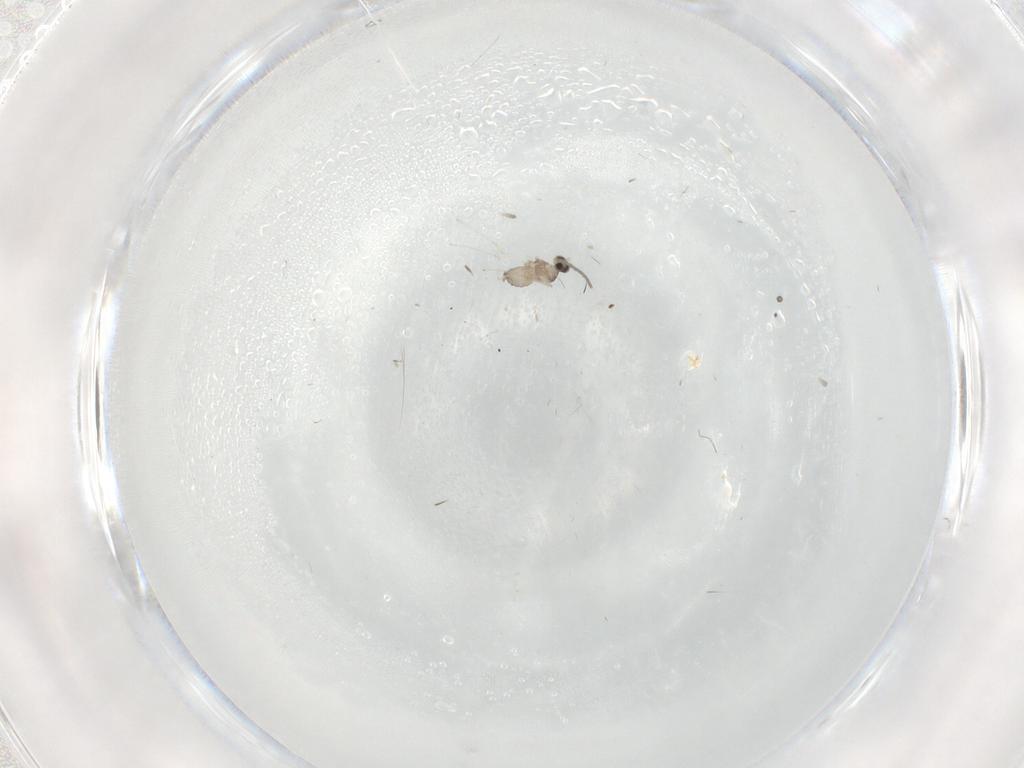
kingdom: Animalia
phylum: Arthropoda
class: Insecta
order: Diptera
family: Cecidomyiidae
